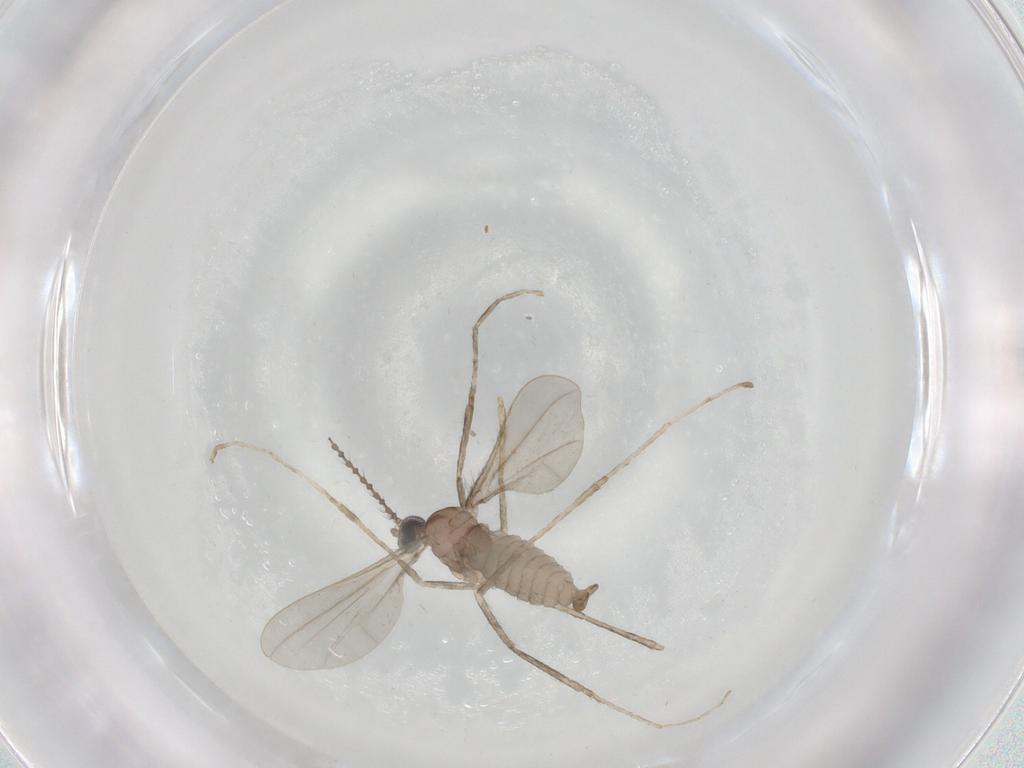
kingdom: Animalia
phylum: Arthropoda
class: Insecta
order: Diptera
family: Cecidomyiidae
